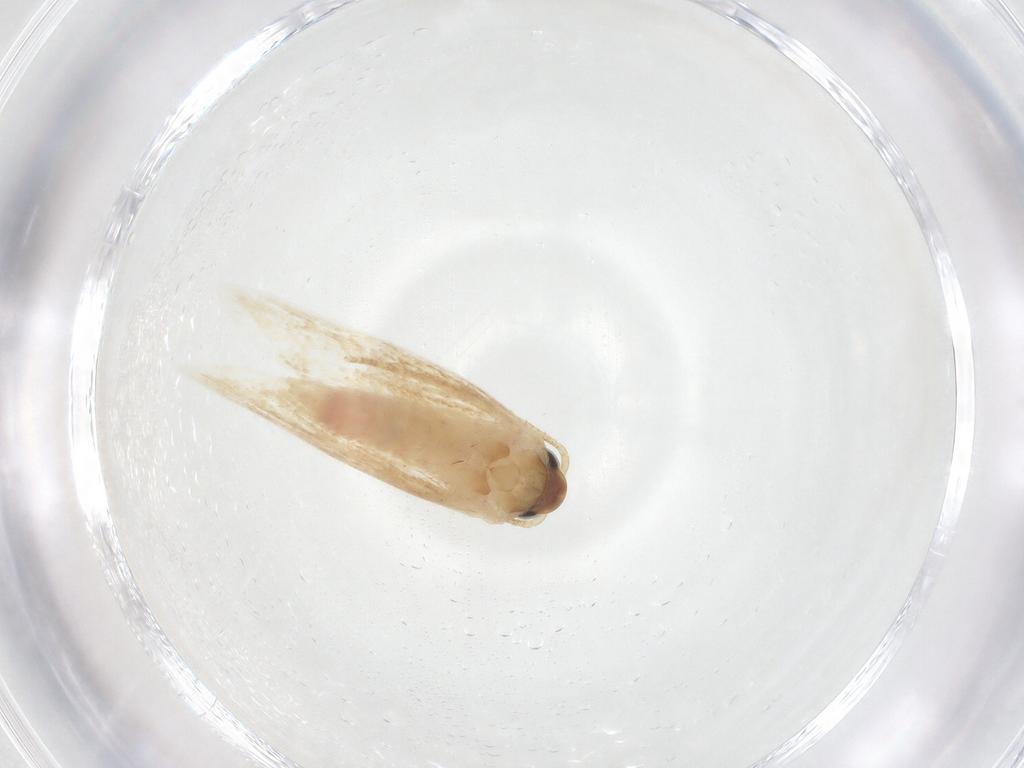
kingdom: Animalia
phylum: Arthropoda
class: Insecta
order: Lepidoptera
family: Autostichidae
